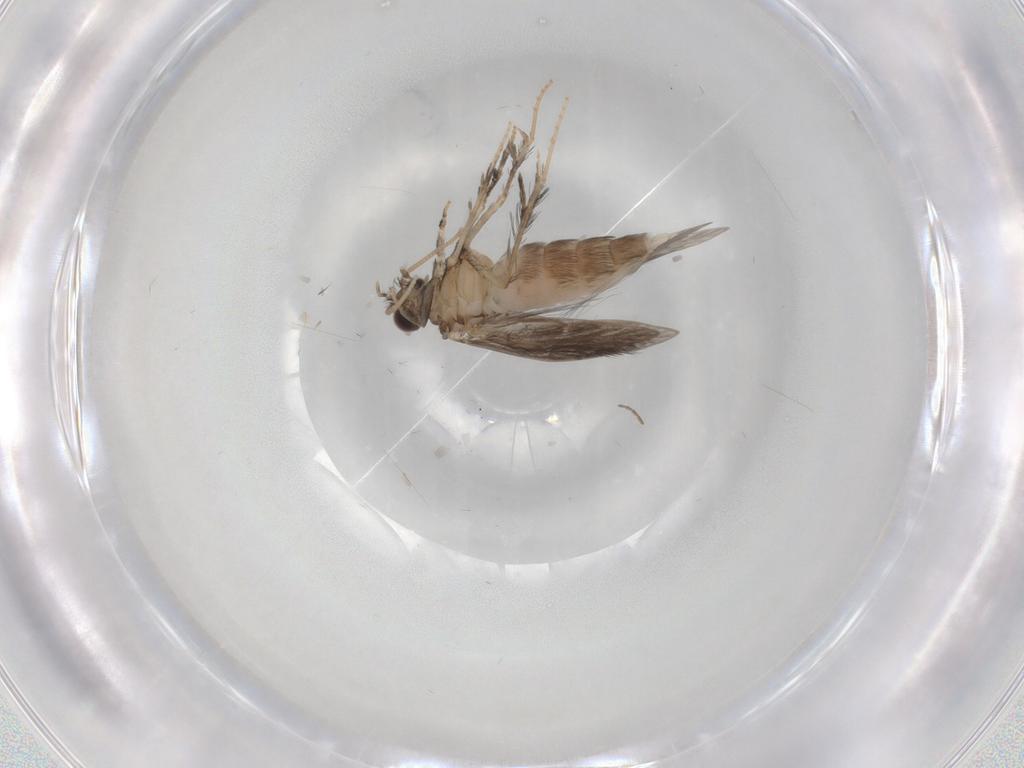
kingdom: Animalia
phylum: Arthropoda
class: Insecta
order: Trichoptera
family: Hydroptilidae
